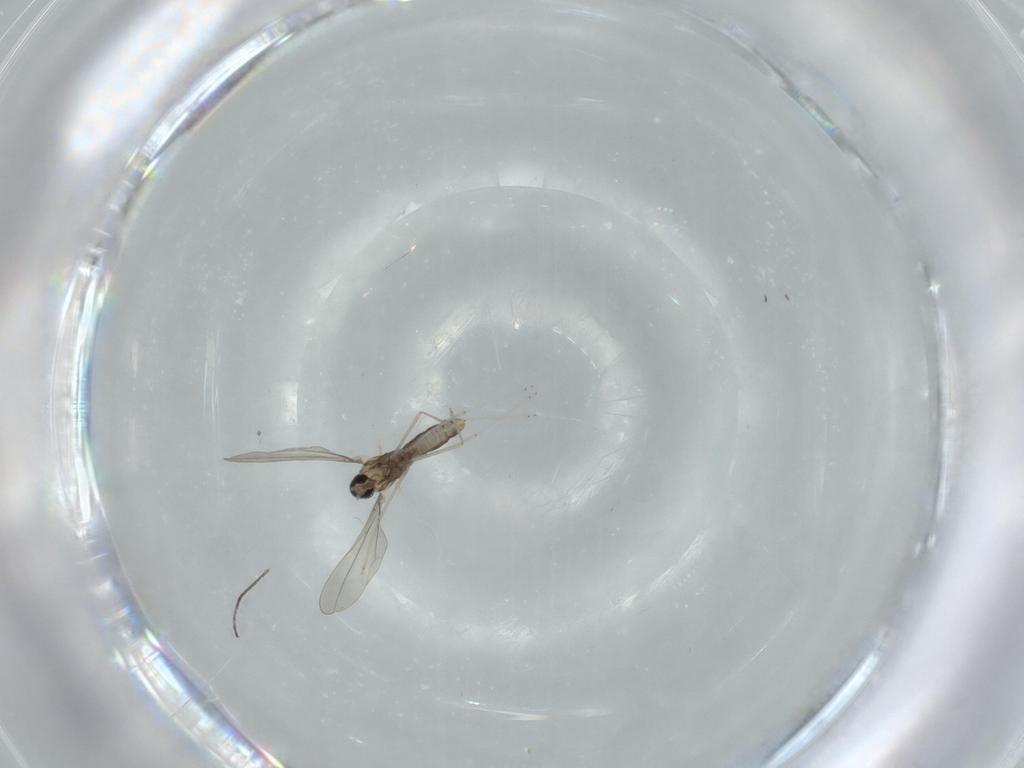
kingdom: Animalia
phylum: Arthropoda
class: Insecta
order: Diptera
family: Cecidomyiidae
